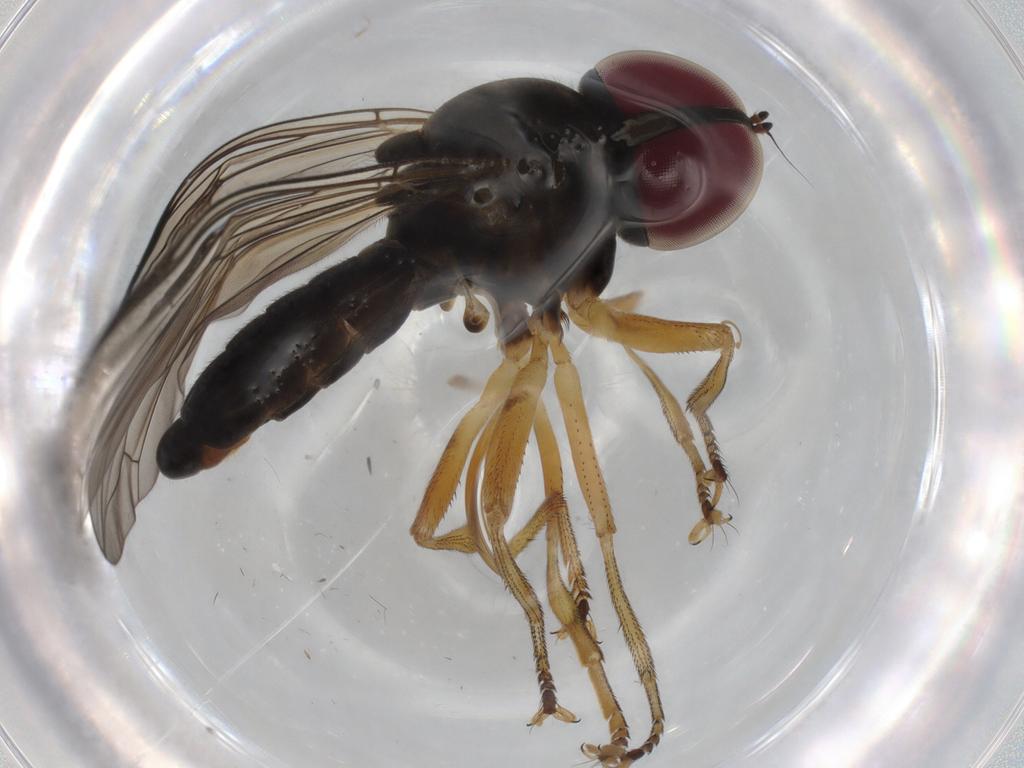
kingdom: Animalia
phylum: Arthropoda
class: Insecta
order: Diptera
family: Pipunculidae
